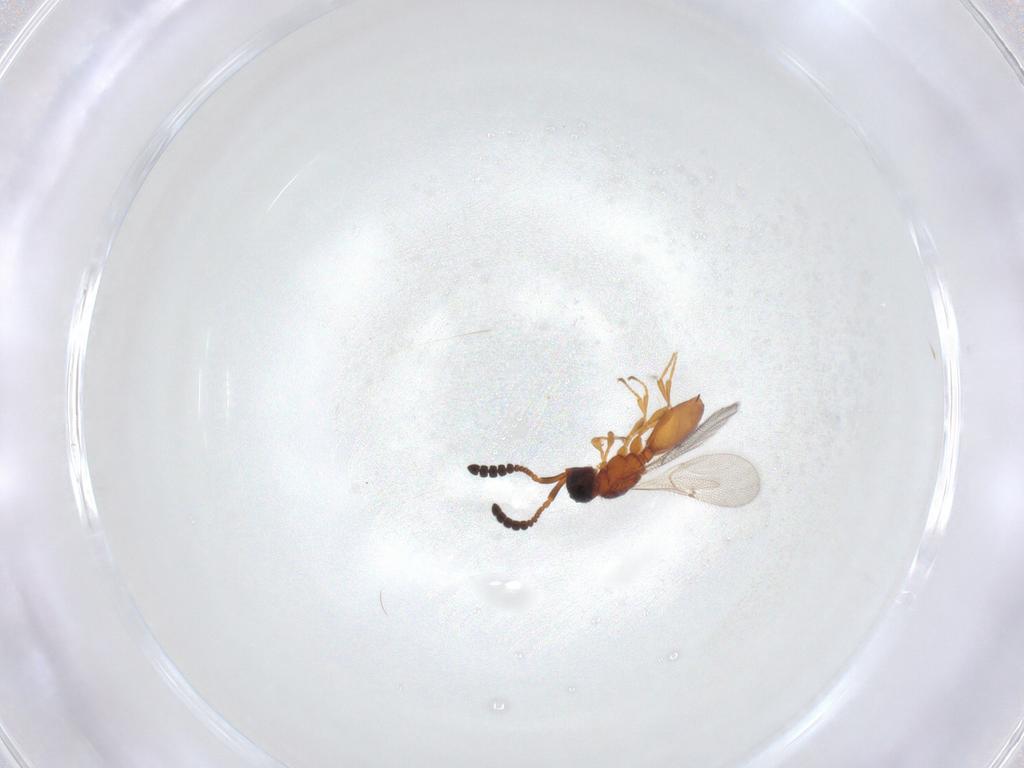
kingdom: Animalia
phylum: Arthropoda
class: Insecta
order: Hymenoptera
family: Diapriidae
